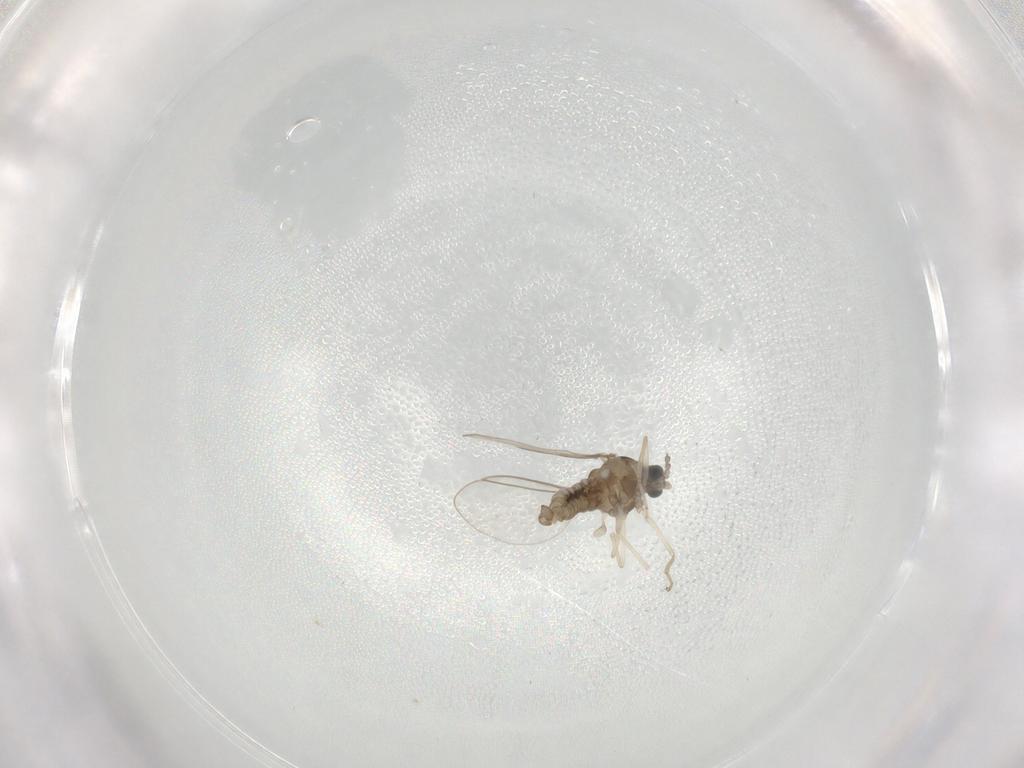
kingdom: Animalia
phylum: Arthropoda
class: Insecta
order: Diptera
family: Cecidomyiidae
